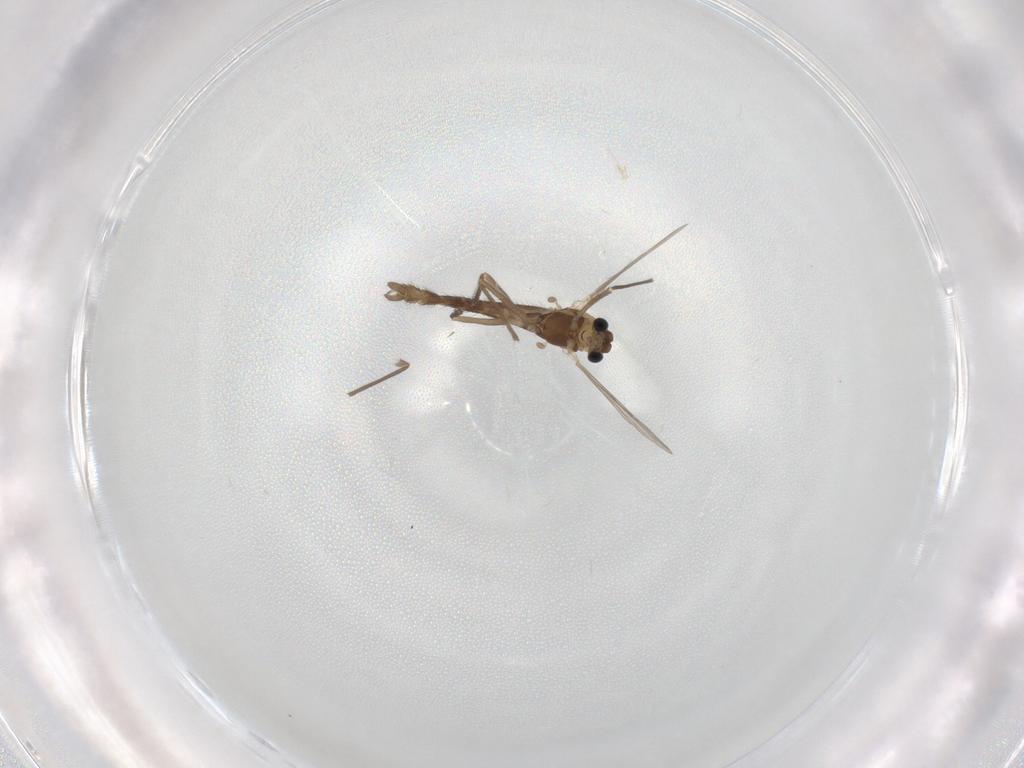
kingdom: Animalia
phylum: Arthropoda
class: Insecta
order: Diptera
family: Chironomidae
